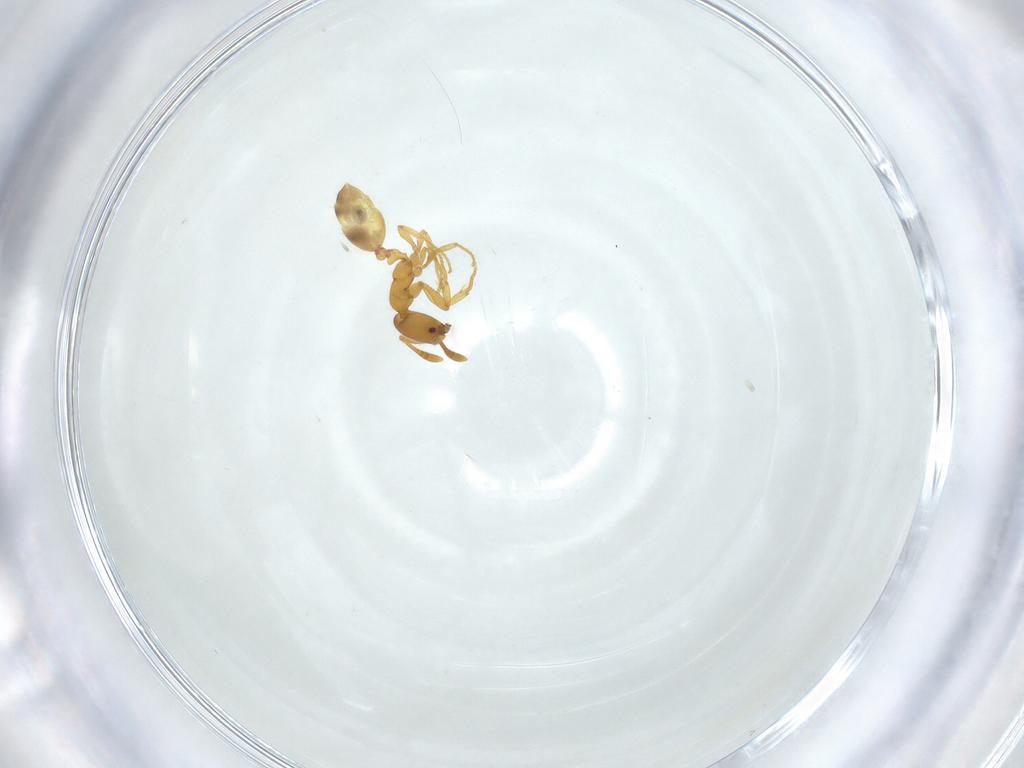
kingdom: Animalia
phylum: Arthropoda
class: Insecta
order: Hymenoptera
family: Formicidae
